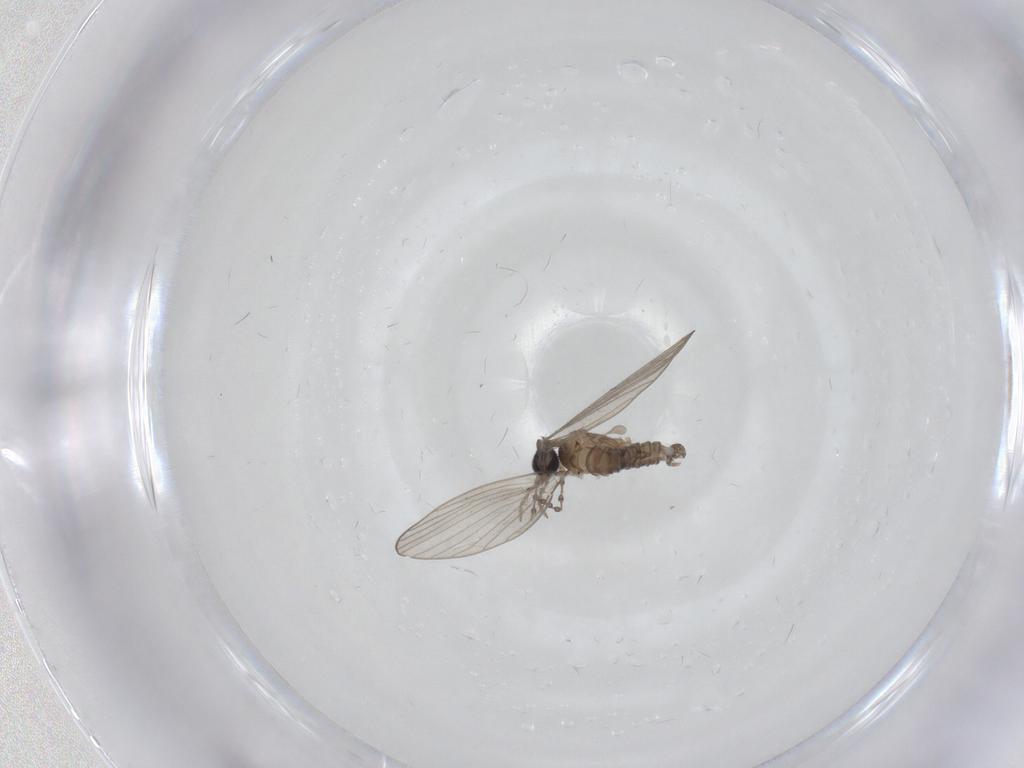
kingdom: Animalia
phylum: Arthropoda
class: Insecta
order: Diptera
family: Psychodidae
